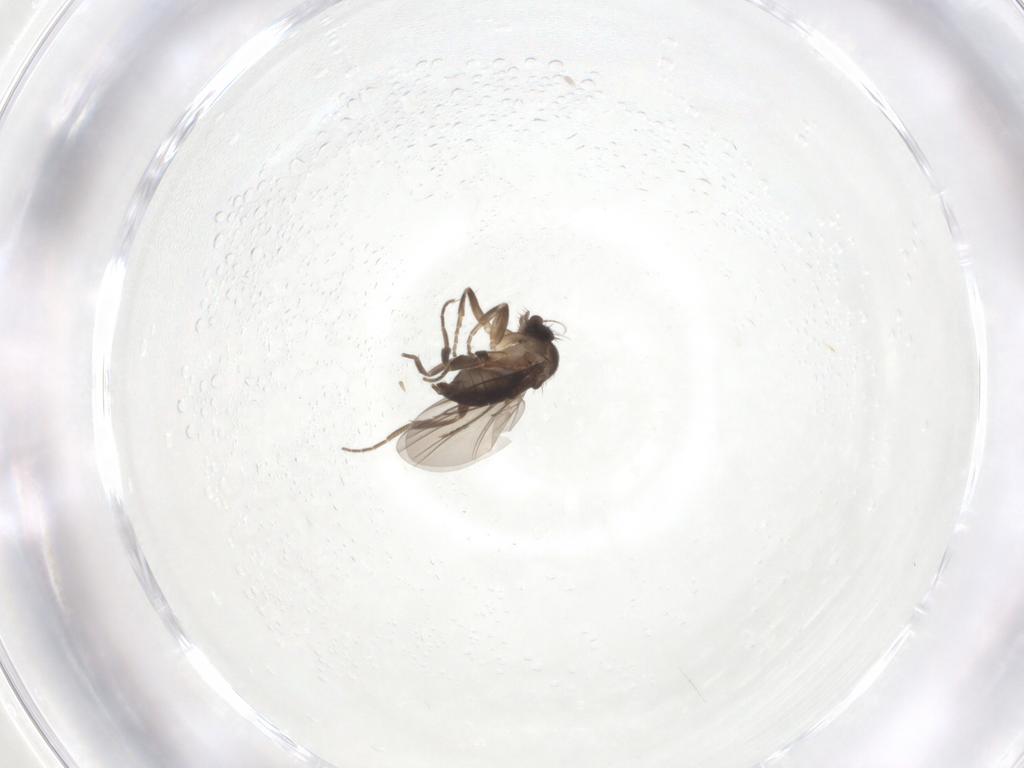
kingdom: Animalia
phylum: Arthropoda
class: Insecta
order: Diptera
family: Phoridae
